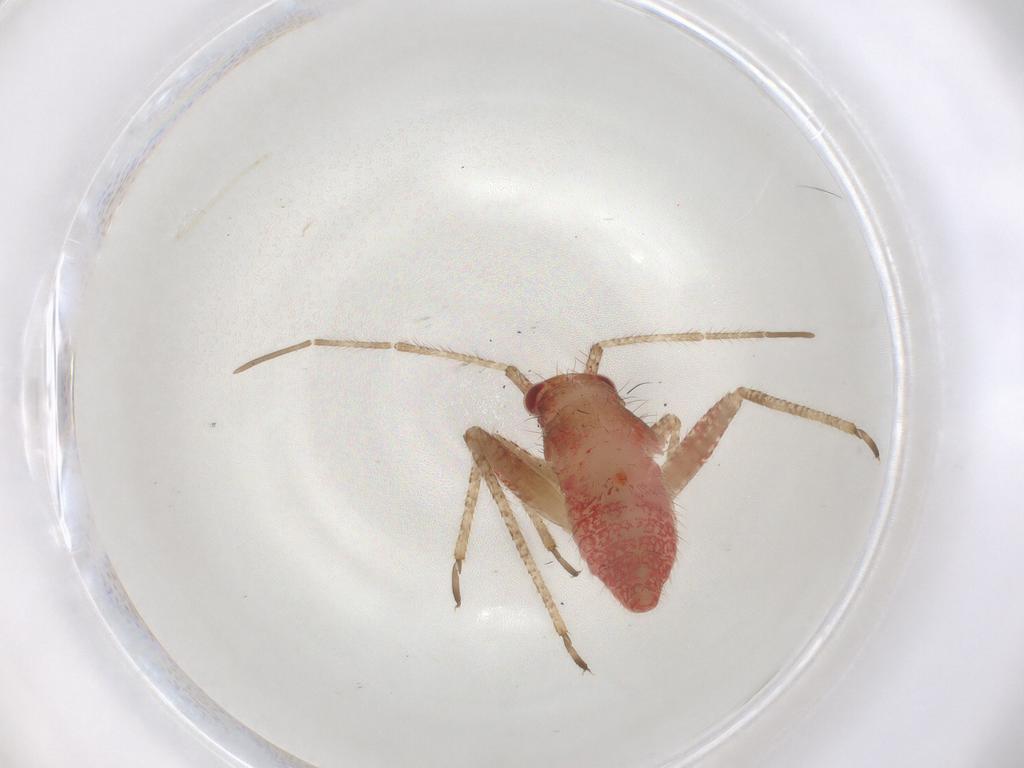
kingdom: Animalia
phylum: Arthropoda
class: Insecta
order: Hemiptera
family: Miridae
